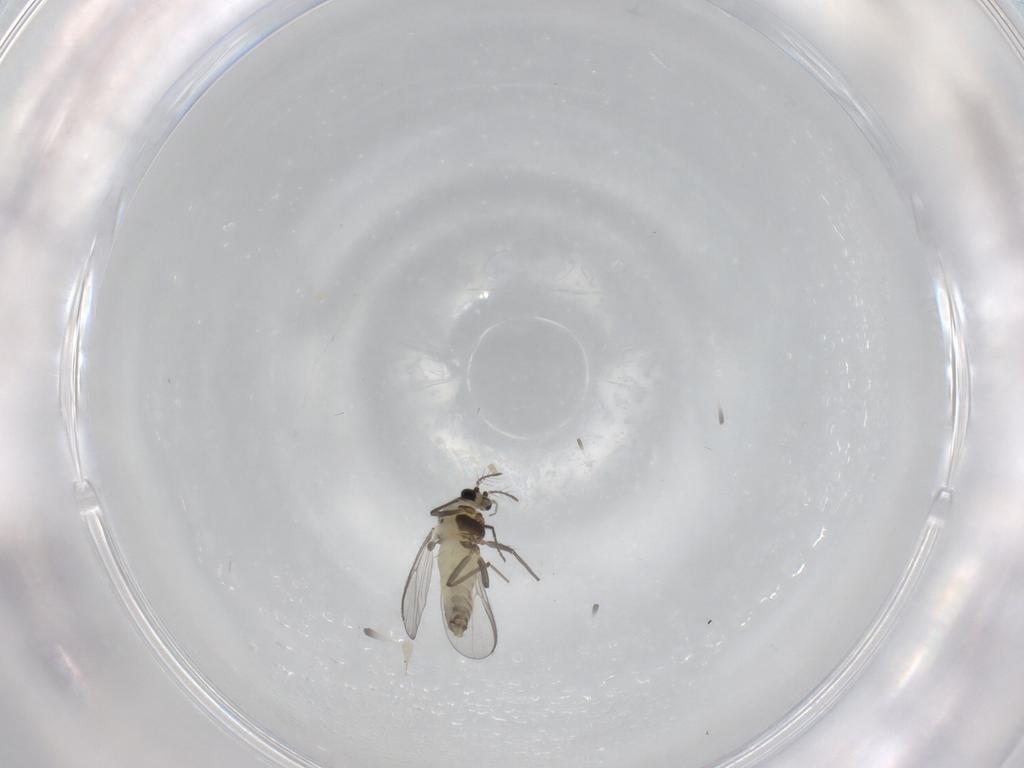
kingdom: Animalia
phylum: Arthropoda
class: Insecta
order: Diptera
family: Chironomidae
